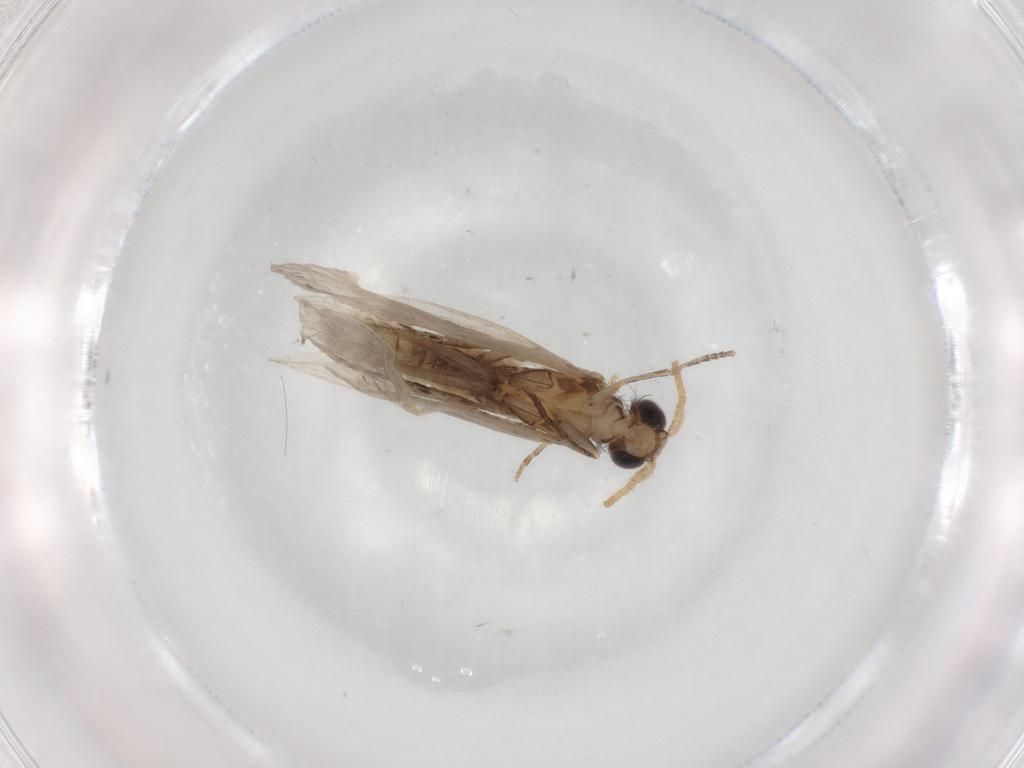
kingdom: Animalia
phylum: Arthropoda
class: Insecta
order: Trichoptera
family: Helicopsychidae
